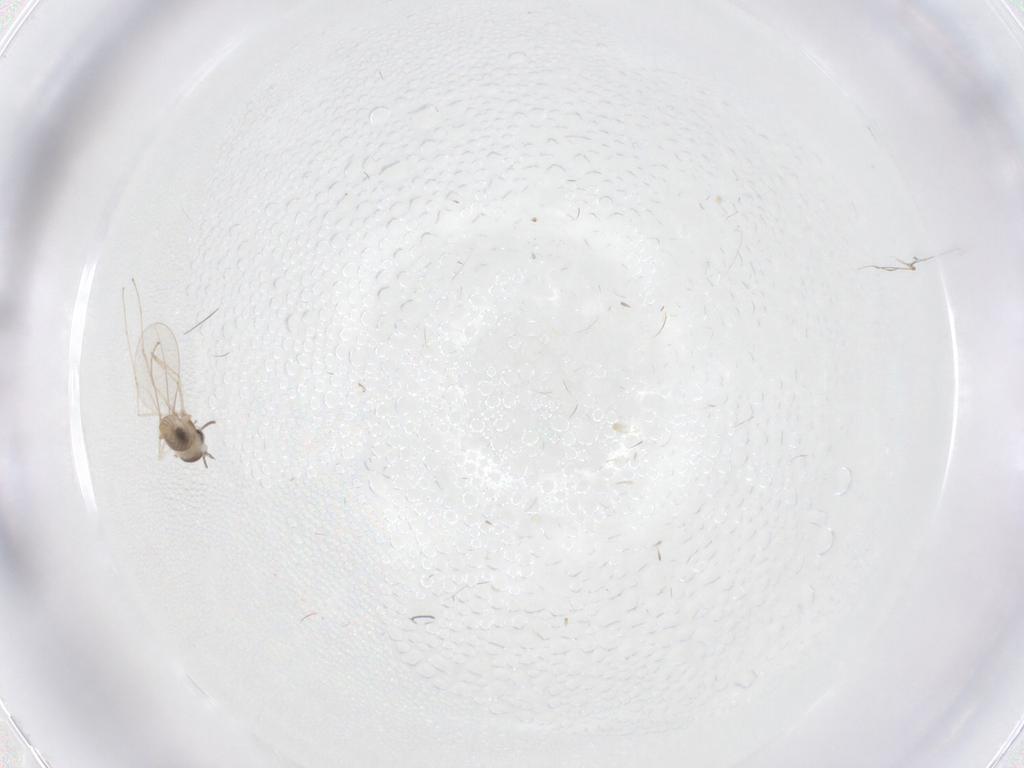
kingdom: Animalia
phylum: Arthropoda
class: Insecta
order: Diptera
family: Cecidomyiidae
